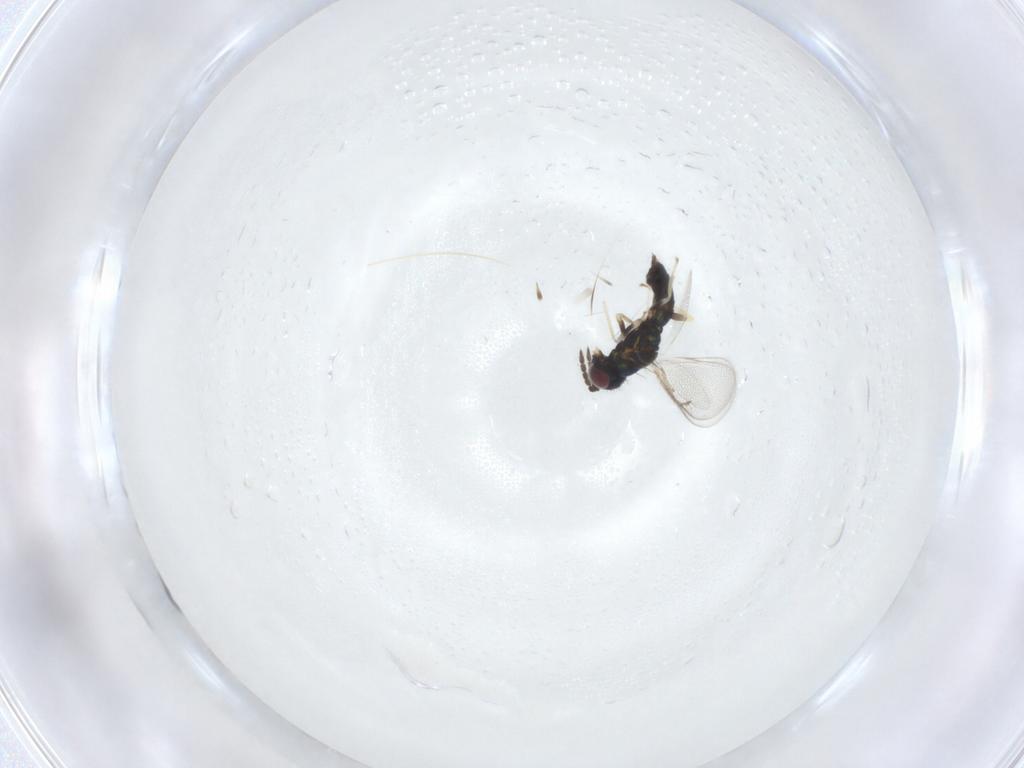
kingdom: Animalia
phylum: Arthropoda
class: Insecta
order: Hymenoptera
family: Eulophidae
